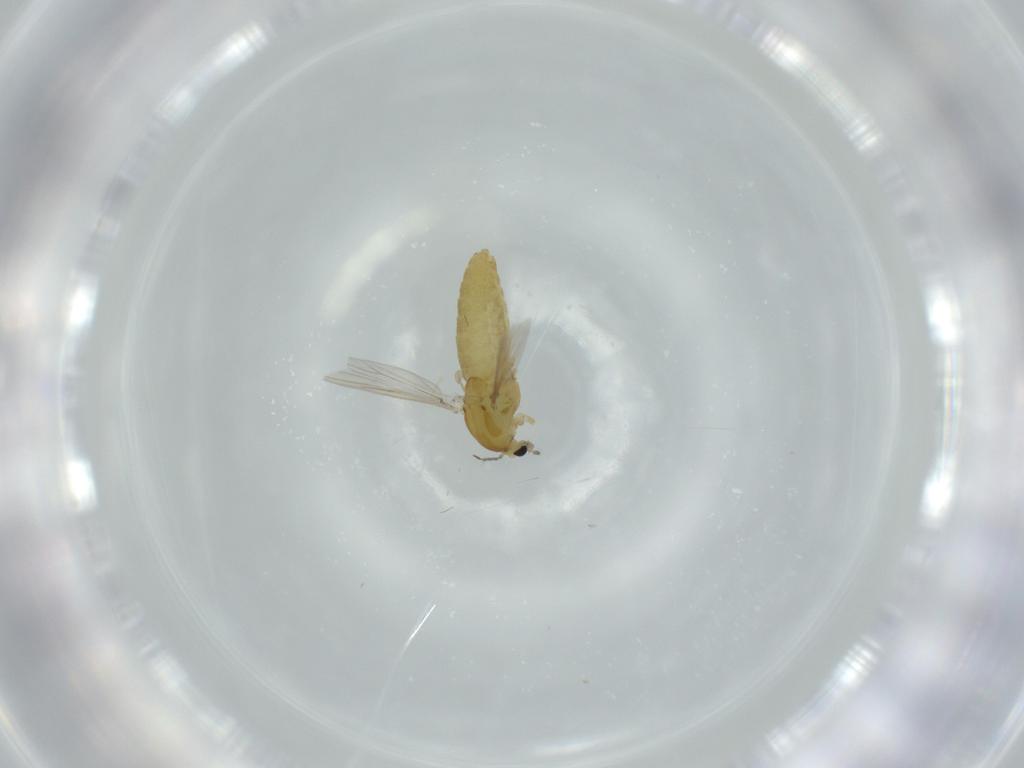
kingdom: Animalia
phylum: Arthropoda
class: Insecta
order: Diptera
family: Chironomidae
